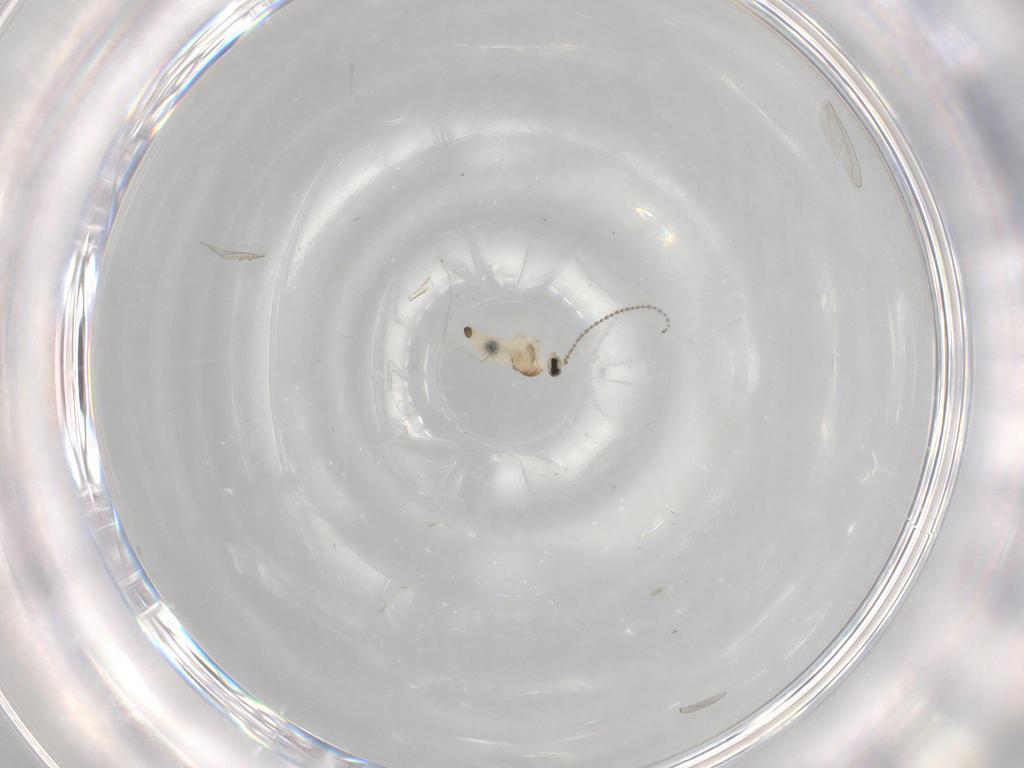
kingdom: Animalia
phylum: Arthropoda
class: Insecta
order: Diptera
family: Cecidomyiidae
